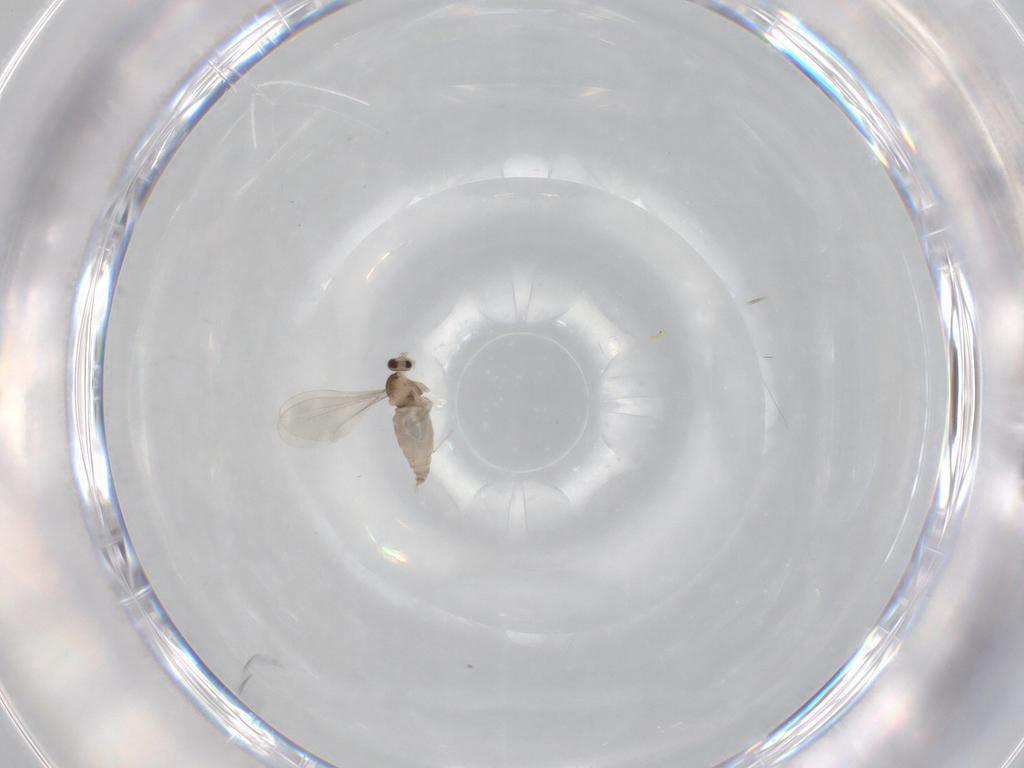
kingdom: Animalia
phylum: Arthropoda
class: Insecta
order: Diptera
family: Cecidomyiidae
